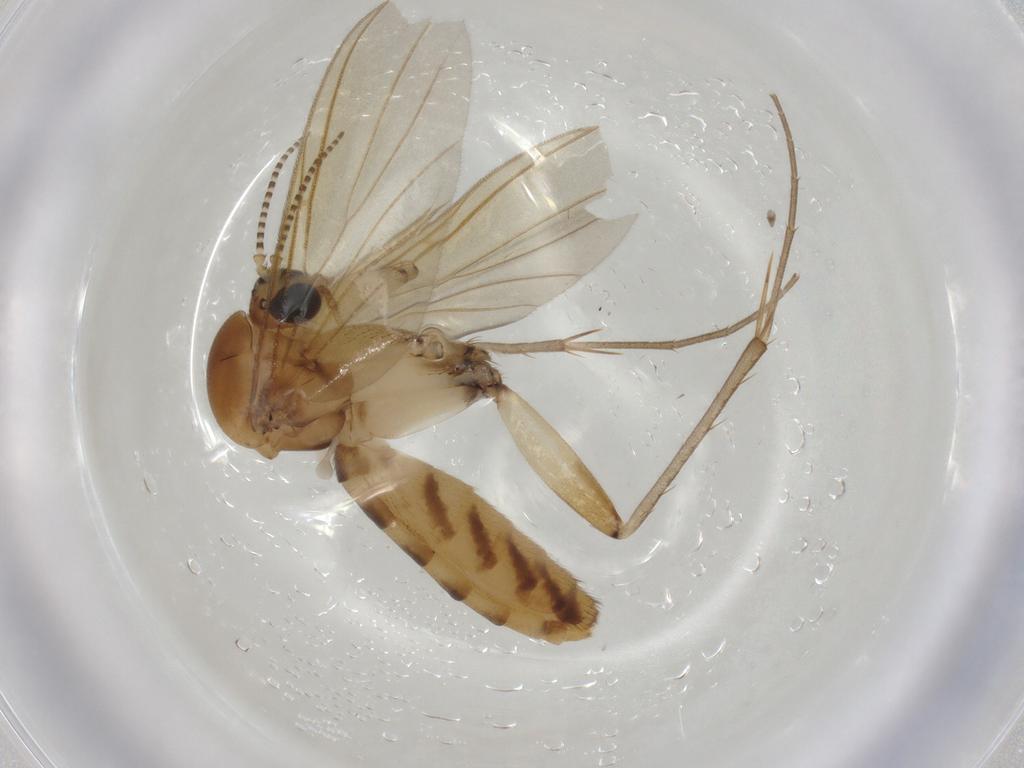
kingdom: Animalia
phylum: Arthropoda
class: Insecta
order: Diptera
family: Mycetophilidae
